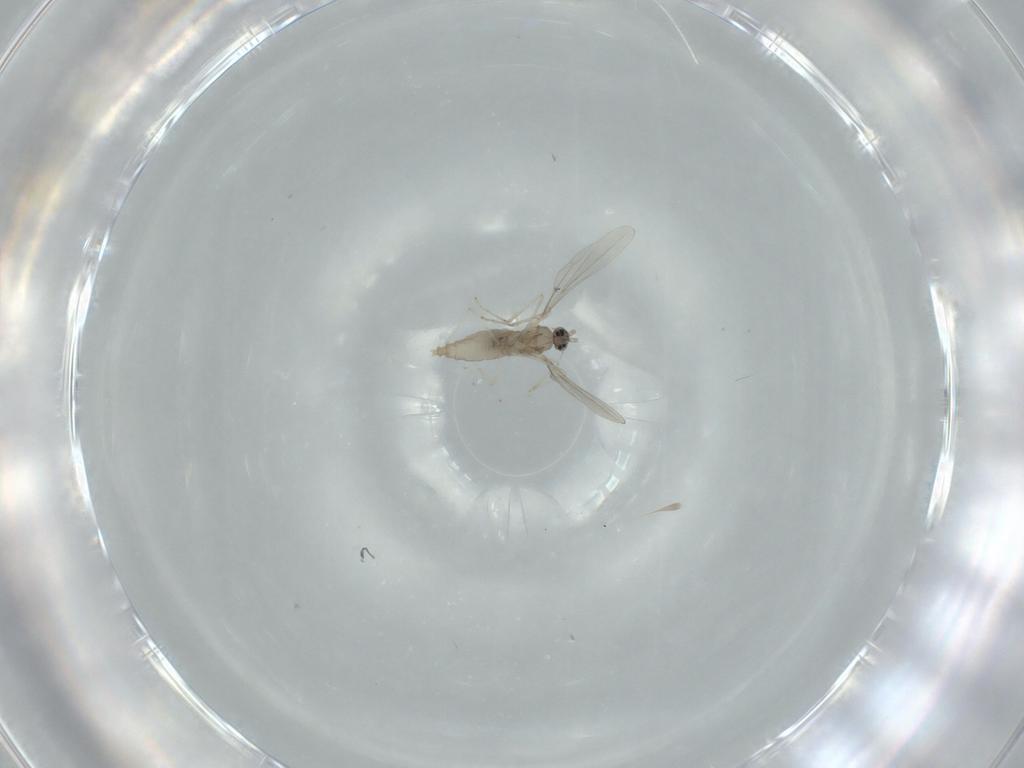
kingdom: Animalia
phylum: Arthropoda
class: Insecta
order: Diptera
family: Cecidomyiidae
